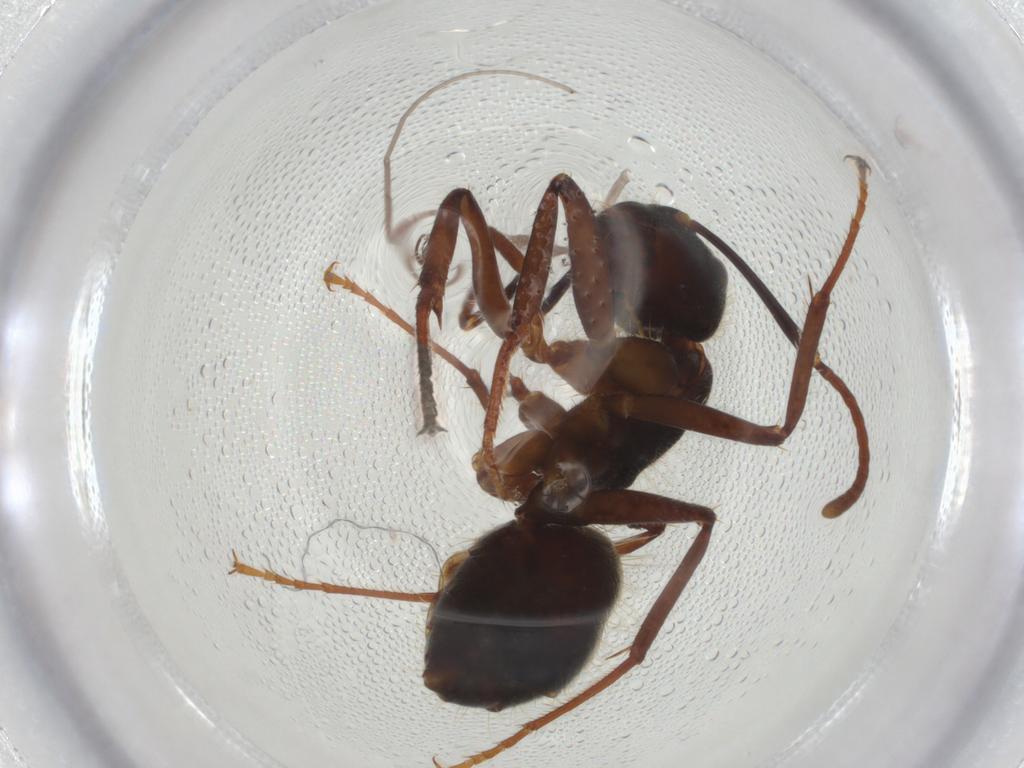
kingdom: Animalia
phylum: Arthropoda
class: Insecta
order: Hymenoptera
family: Formicidae
